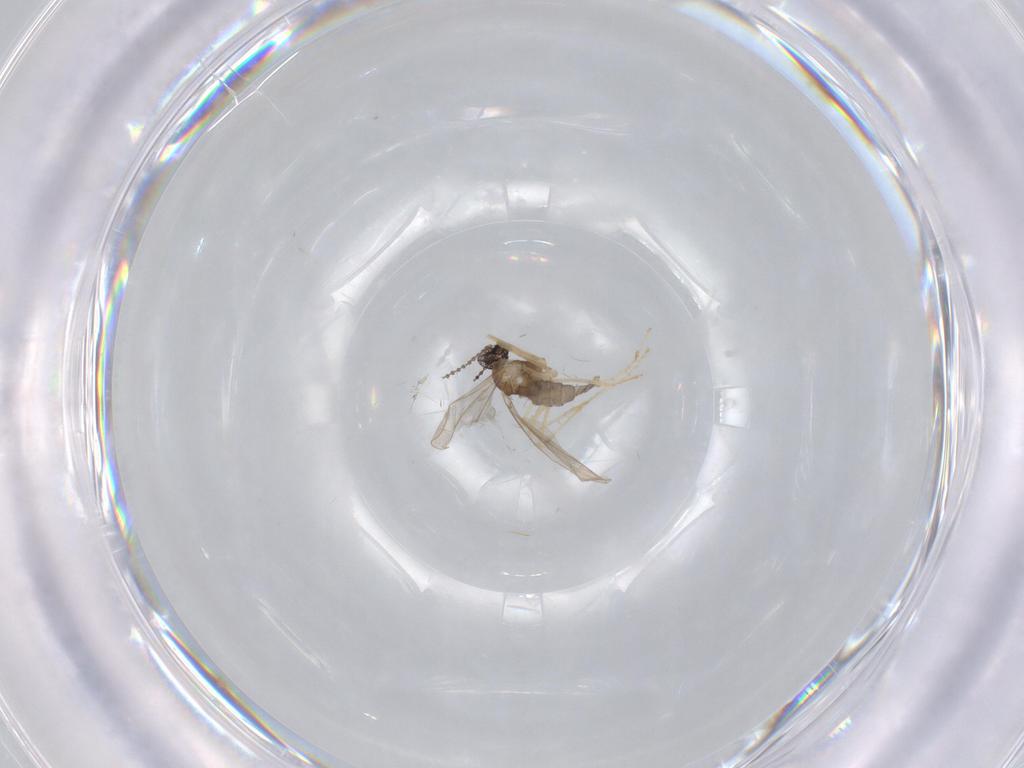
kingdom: Animalia
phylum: Arthropoda
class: Insecta
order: Diptera
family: Cecidomyiidae
